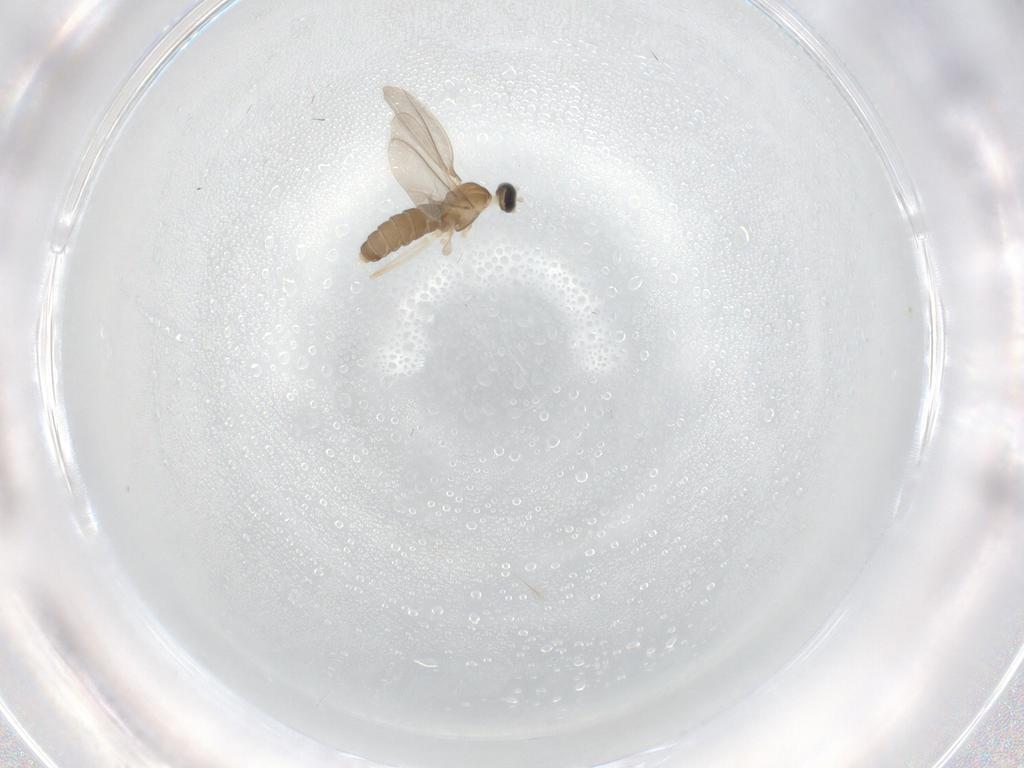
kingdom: Animalia
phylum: Arthropoda
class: Insecta
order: Diptera
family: Cecidomyiidae
